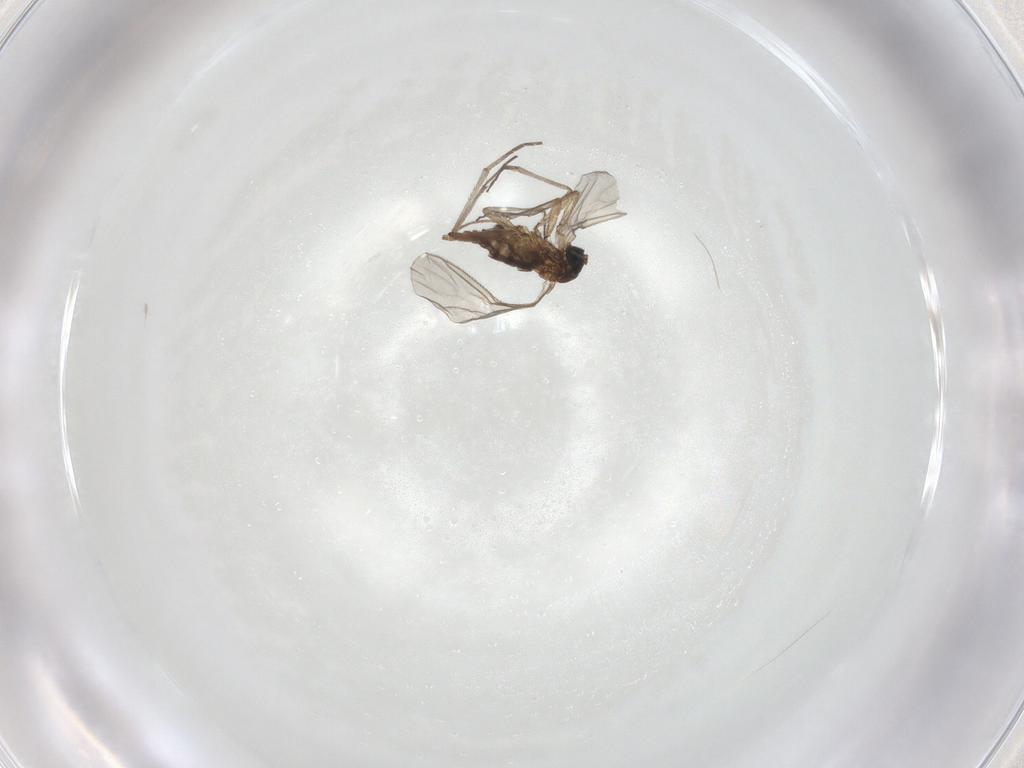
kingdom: Animalia
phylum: Arthropoda
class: Insecta
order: Diptera
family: Sciaridae
